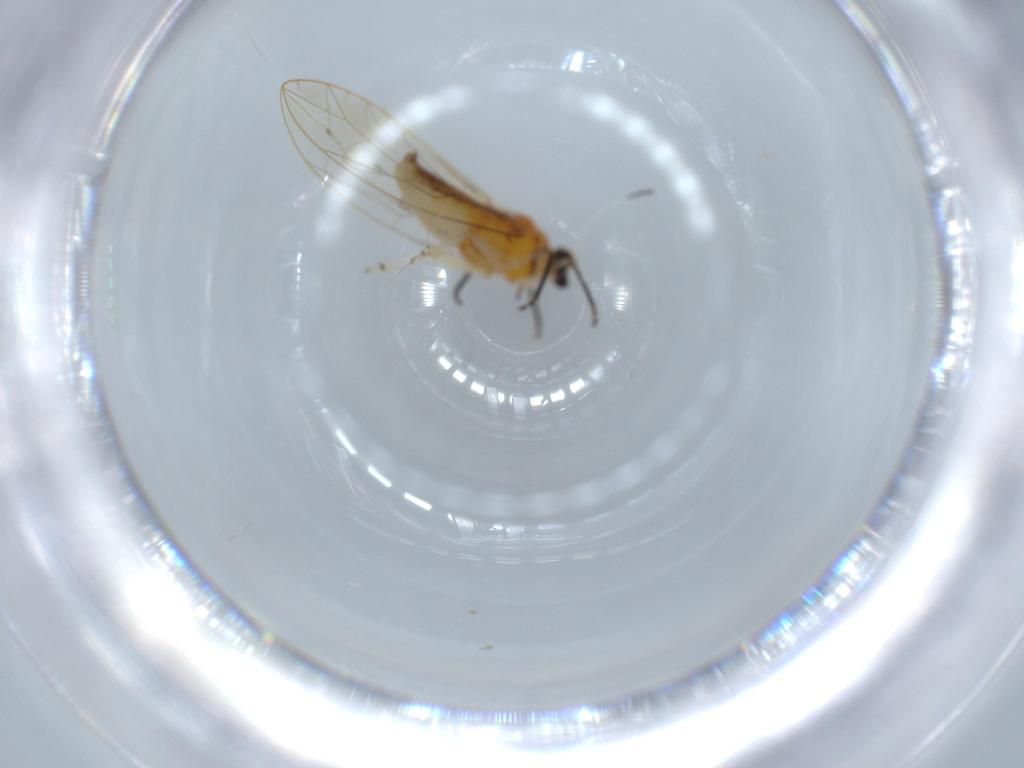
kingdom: Animalia
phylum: Arthropoda
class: Insecta
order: Hemiptera
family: Triozidae
